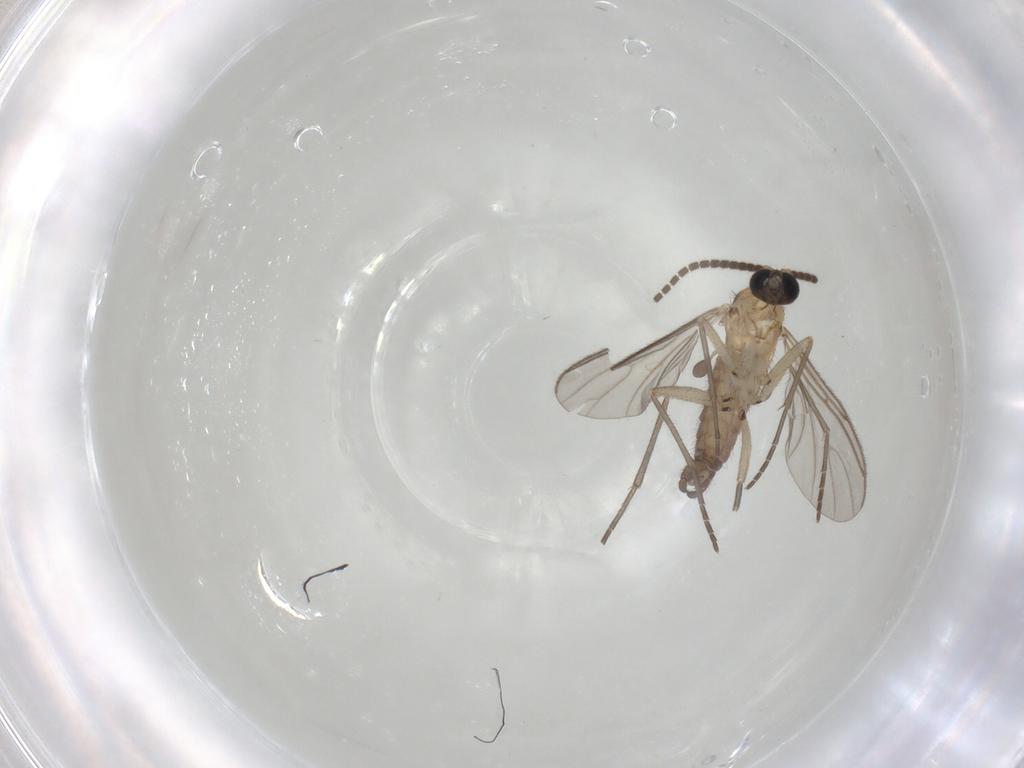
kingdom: Animalia
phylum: Arthropoda
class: Insecta
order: Diptera
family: Sciaridae
